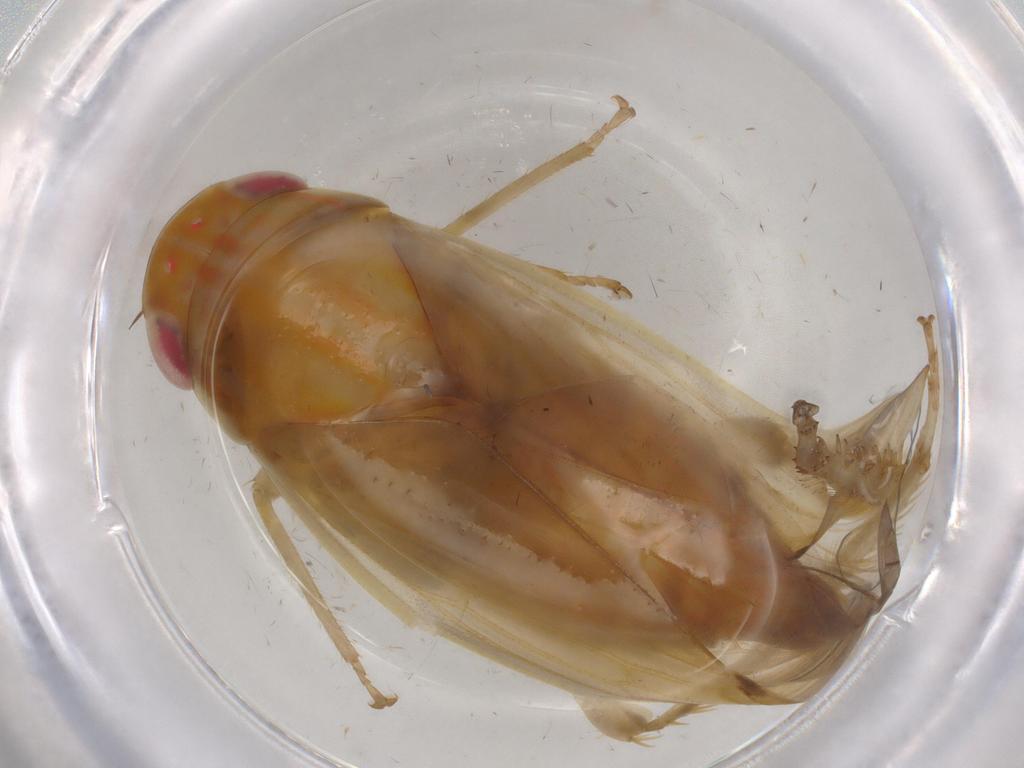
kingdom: Animalia
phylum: Arthropoda
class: Insecta
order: Hemiptera
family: Cicadellidae
